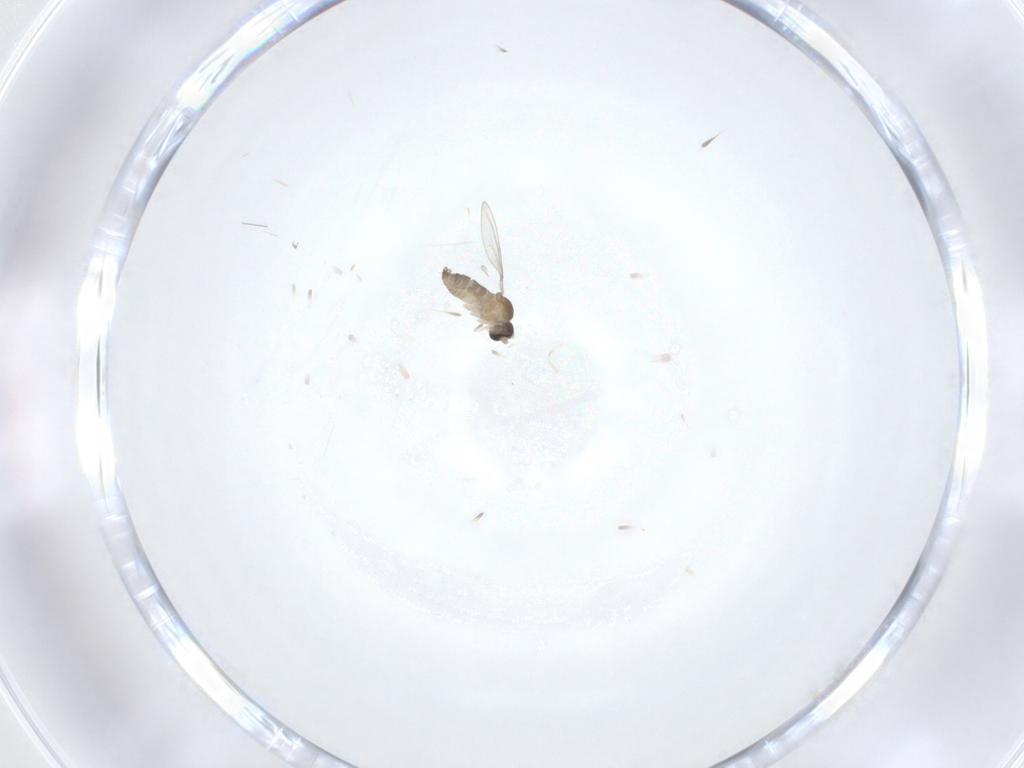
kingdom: Animalia
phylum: Arthropoda
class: Insecta
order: Diptera
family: Cecidomyiidae
